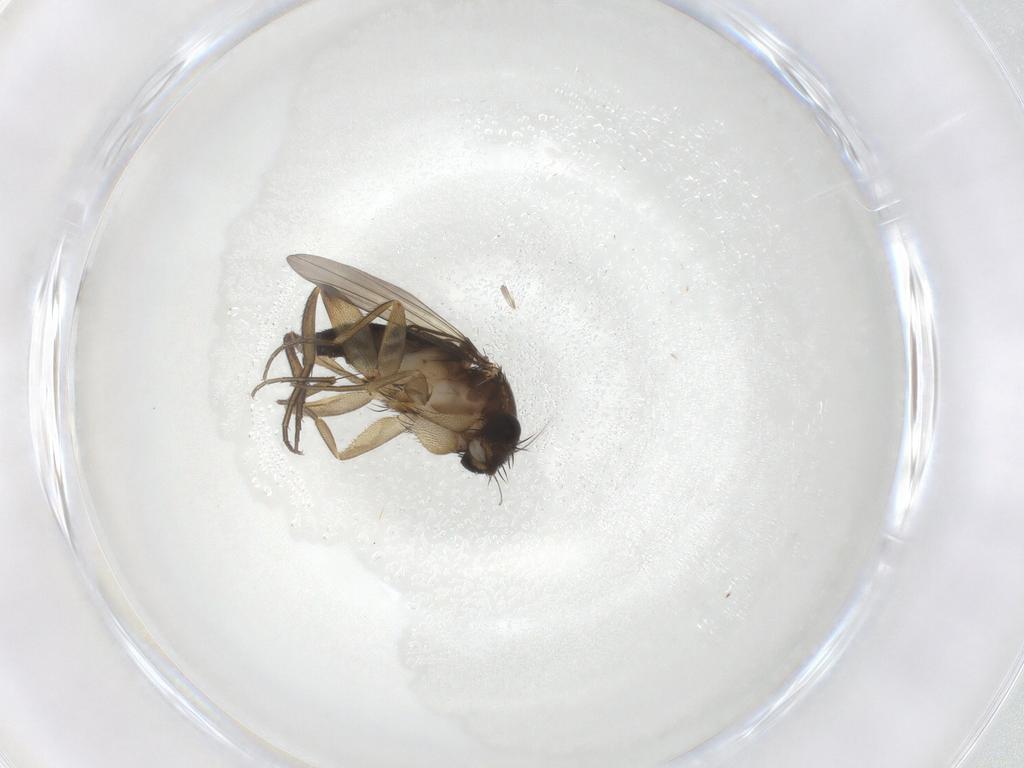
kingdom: Animalia
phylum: Arthropoda
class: Insecta
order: Diptera
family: Phoridae
